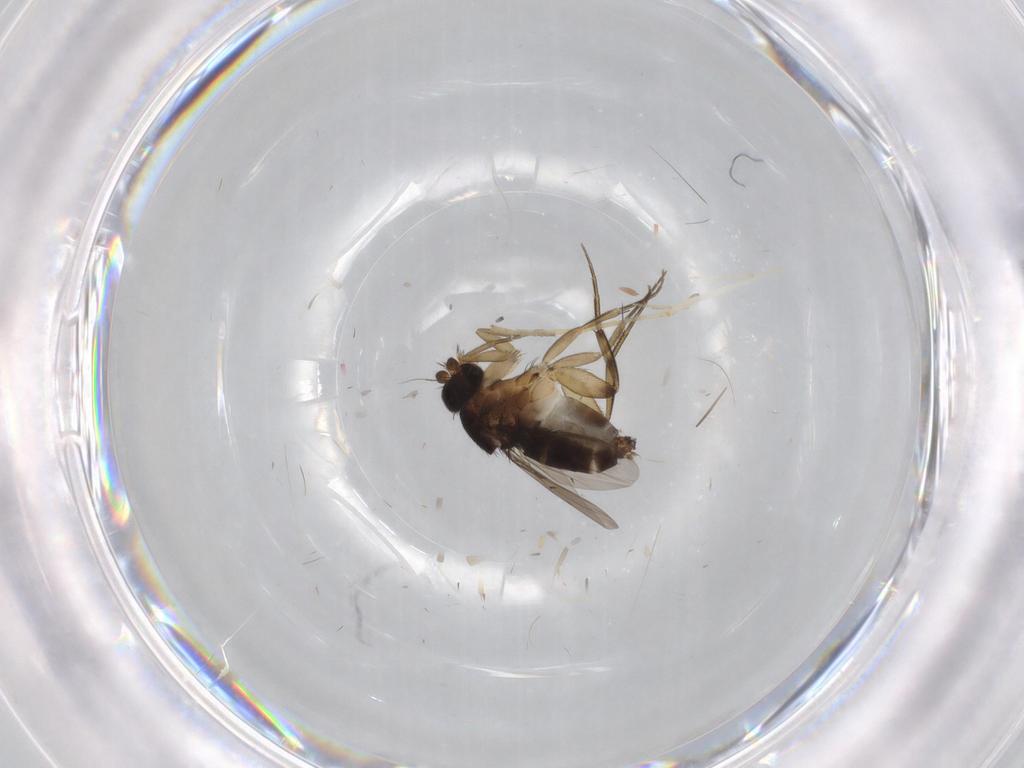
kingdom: Animalia
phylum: Arthropoda
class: Insecta
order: Diptera
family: Phoridae
